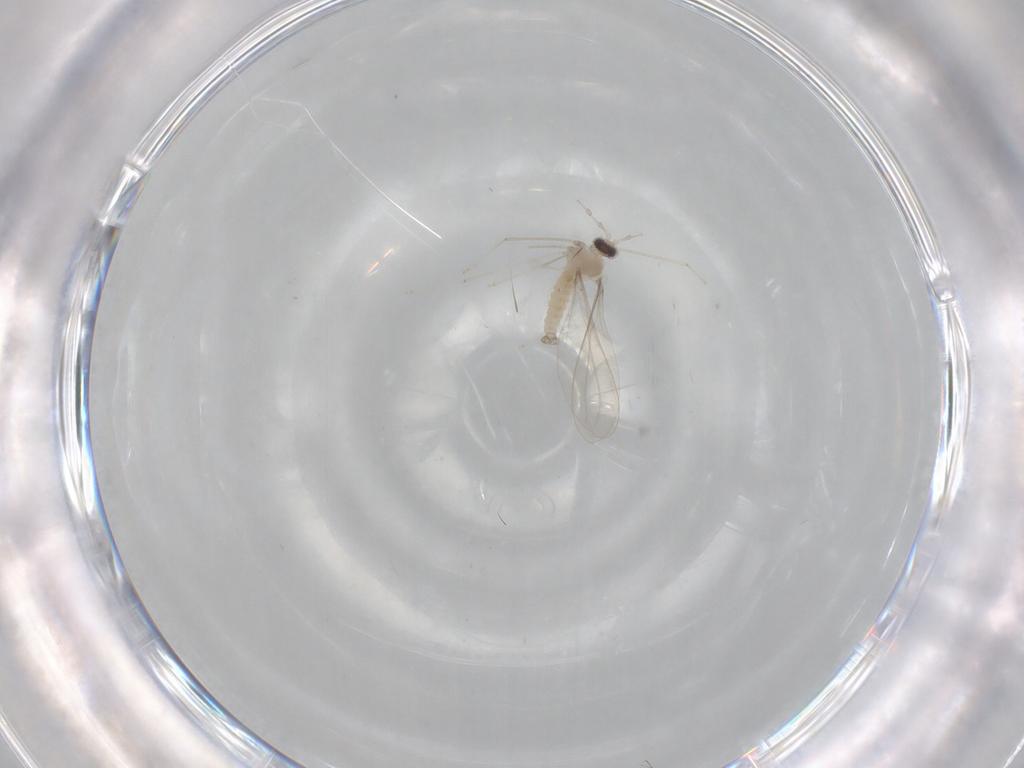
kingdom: Animalia
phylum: Arthropoda
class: Insecta
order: Diptera
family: Cecidomyiidae
